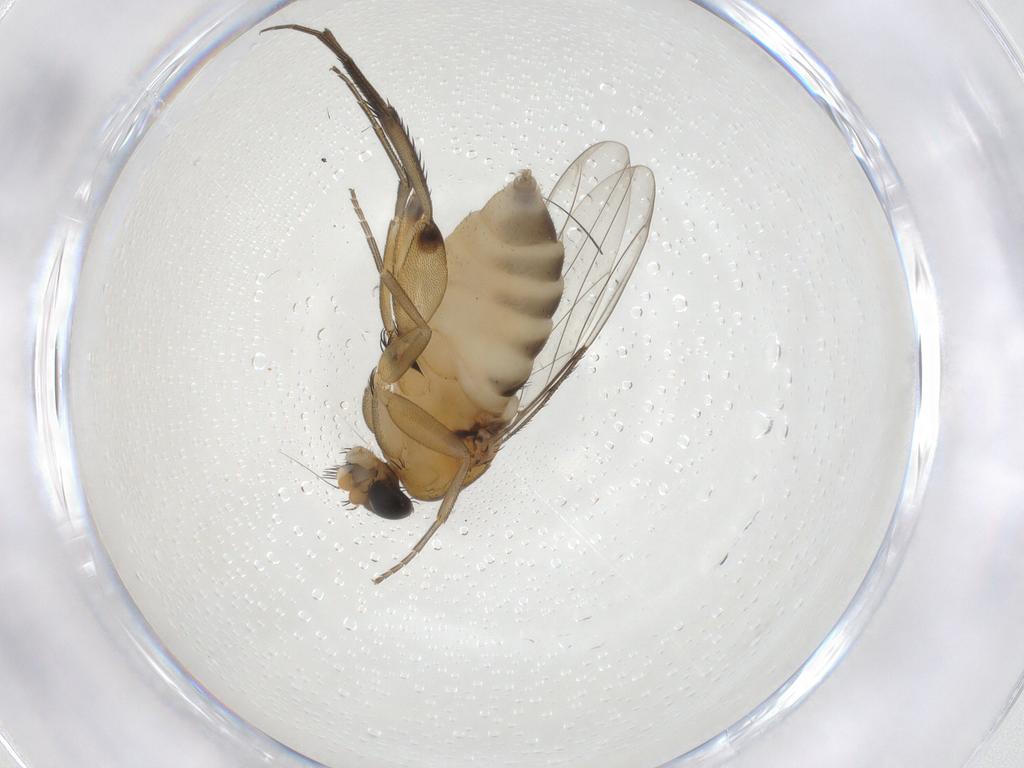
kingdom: Animalia
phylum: Arthropoda
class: Insecta
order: Diptera
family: Phoridae
